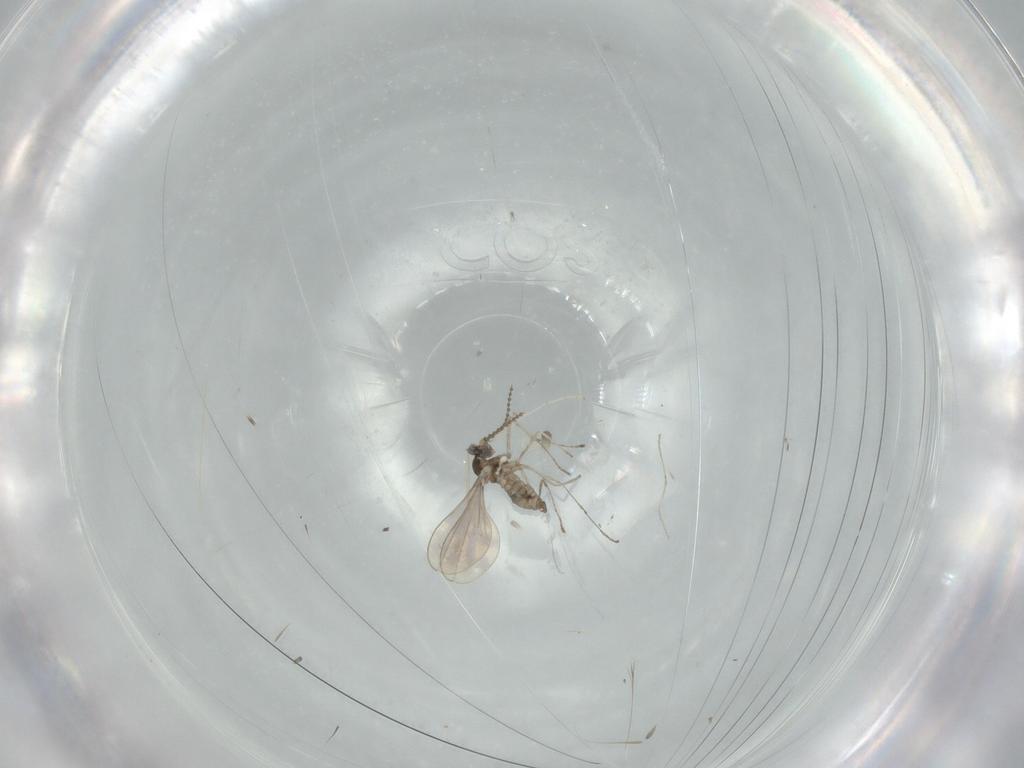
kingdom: Animalia
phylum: Arthropoda
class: Insecta
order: Diptera
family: Cecidomyiidae
